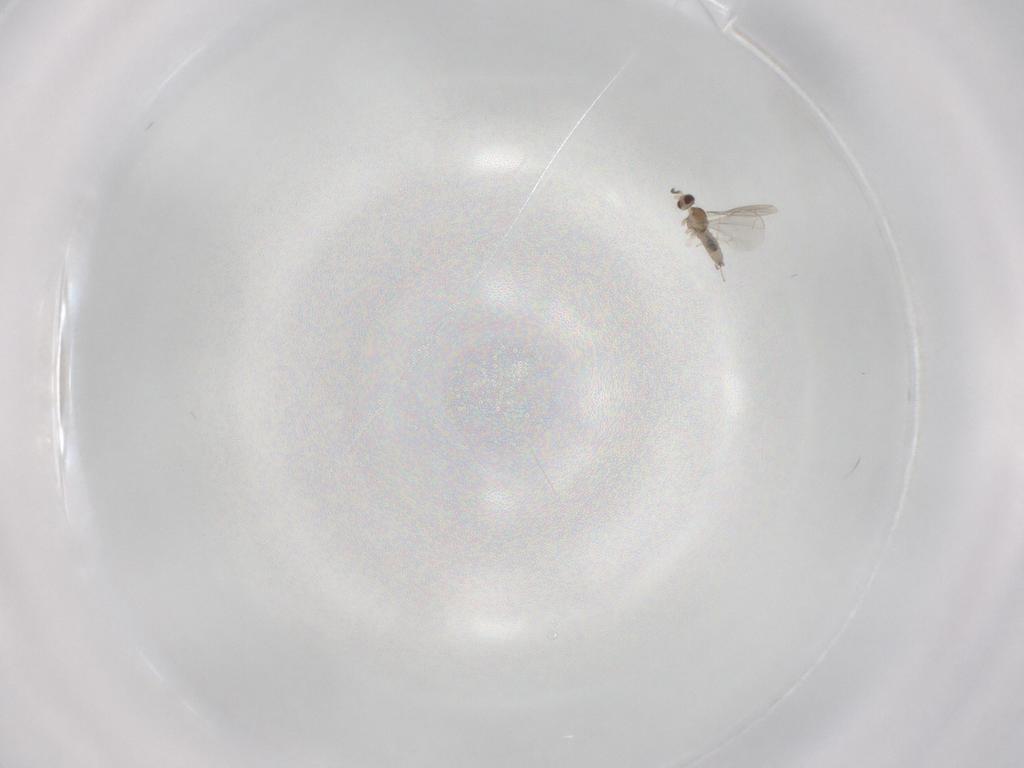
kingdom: Animalia
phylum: Arthropoda
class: Insecta
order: Diptera
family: Cecidomyiidae
